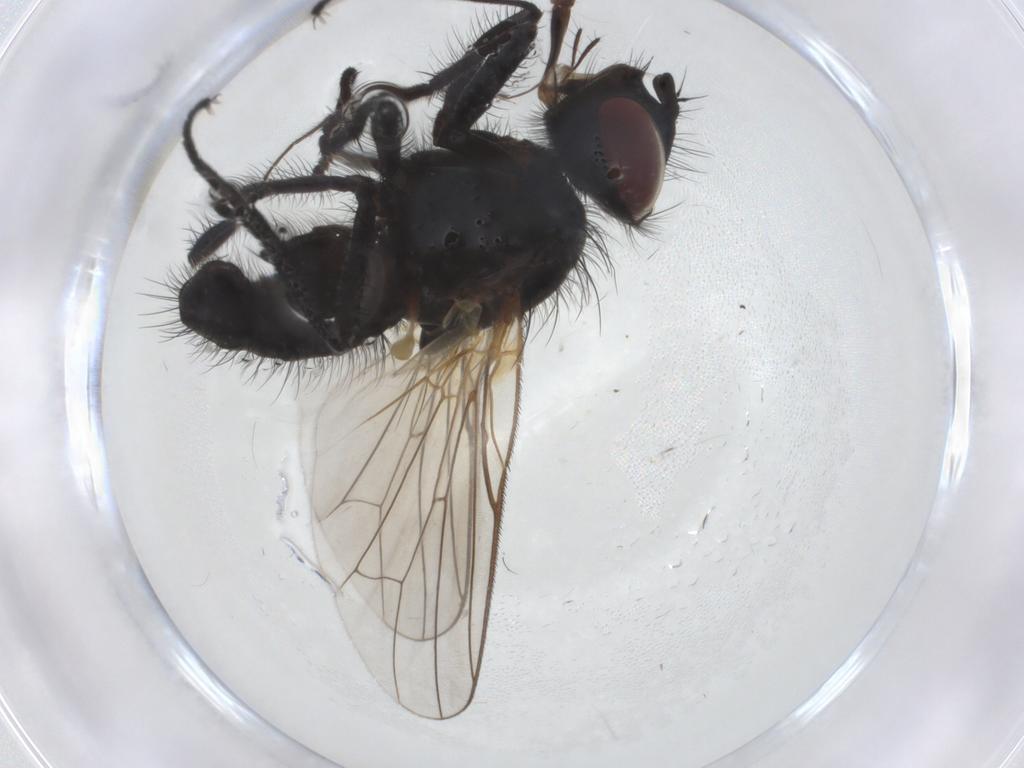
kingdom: Animalia
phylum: Arthropoda
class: Insecta
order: Diptera
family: Anthomyiidae
